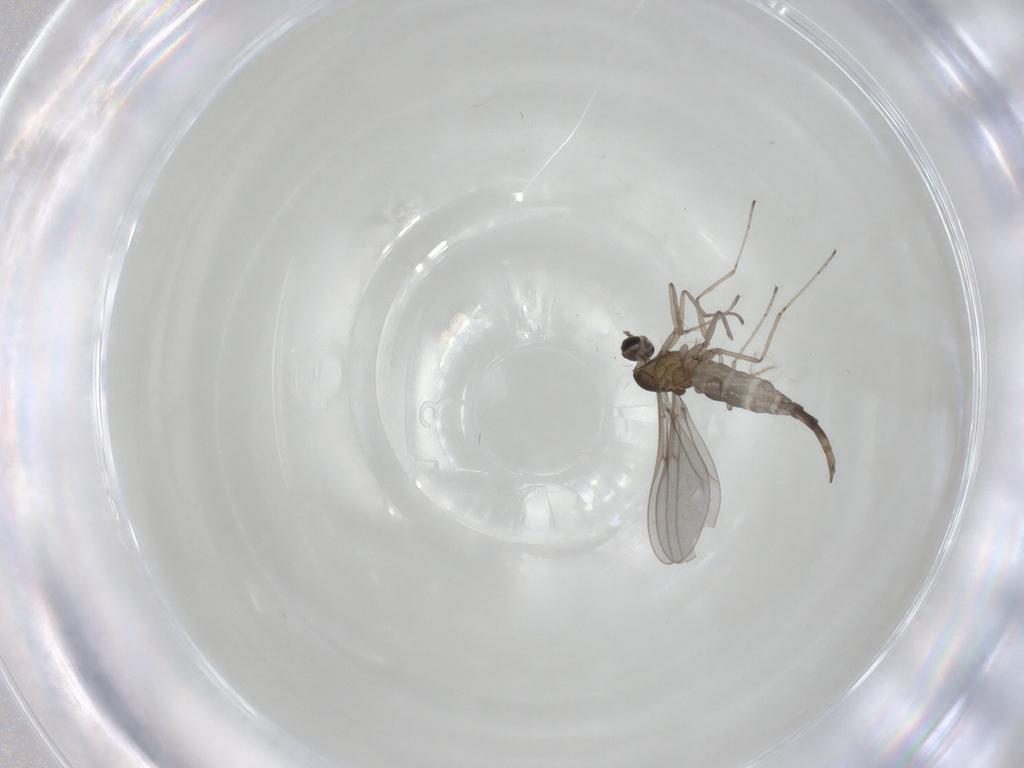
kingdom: Animalia
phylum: Arthropoda
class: Insecta
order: Diptera
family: Cecidomyiidae
